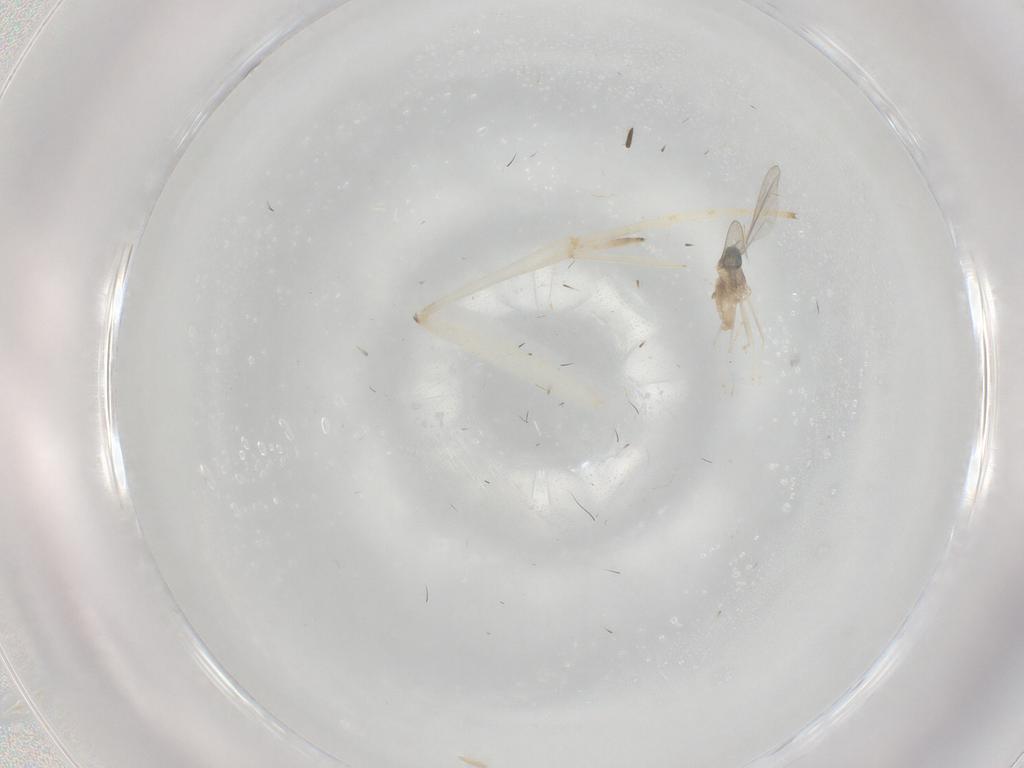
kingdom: Animalia
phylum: Arthropoda
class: Insecta
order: Diptera
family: Cecidomyiidae
